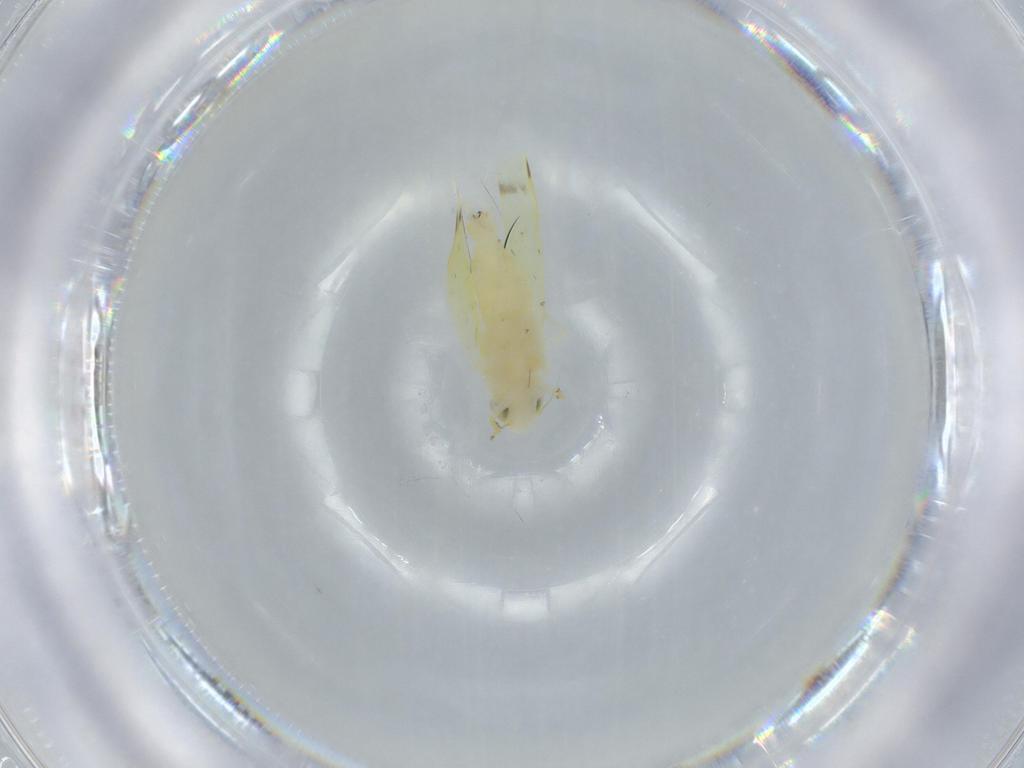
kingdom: Animalia
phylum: Arthropoda
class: Insecta
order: Hemiptera
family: Cicadellidae
